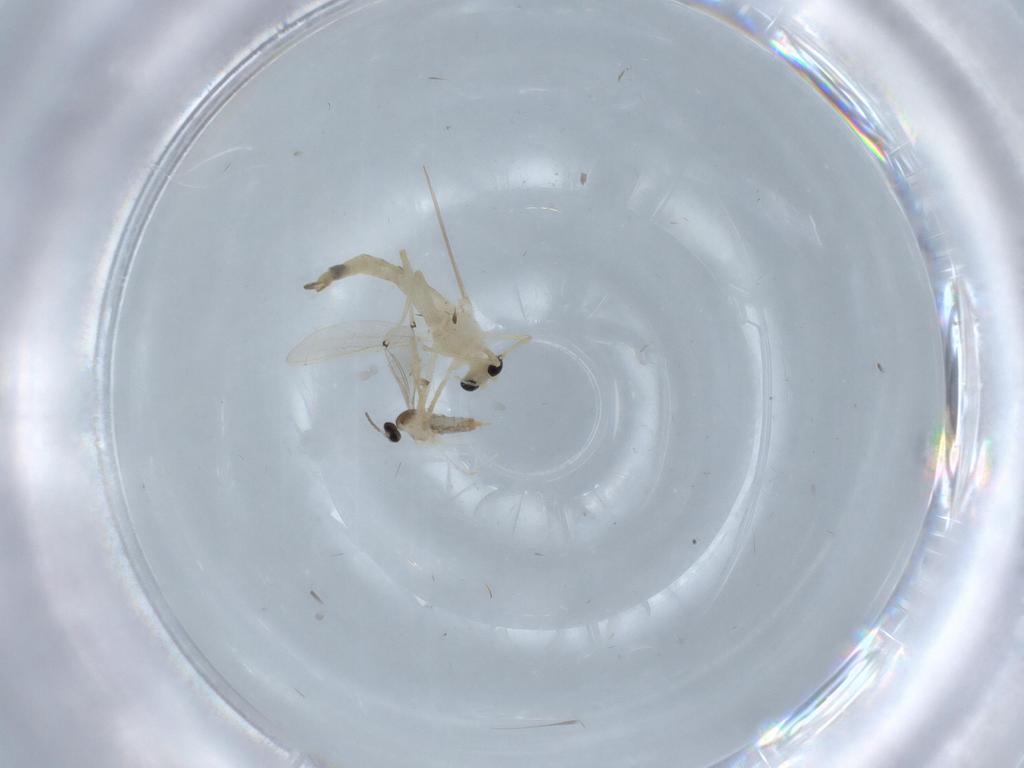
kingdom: Animalia
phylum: Arthropoda
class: Insecta
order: Diptera
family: Chironomidae
